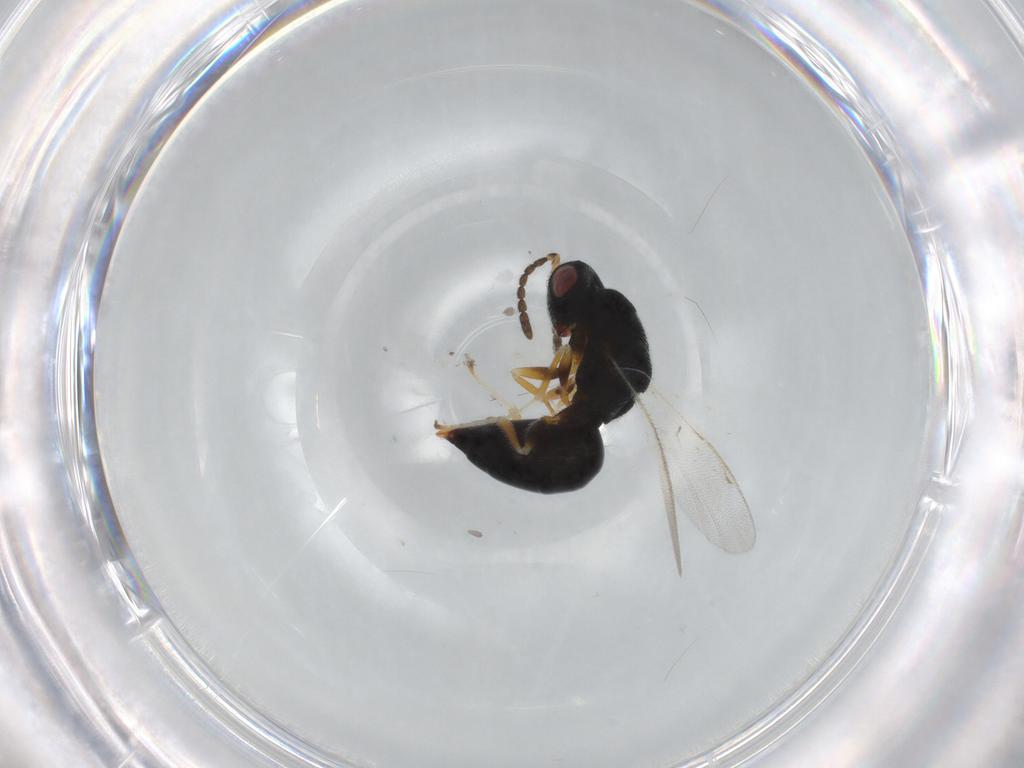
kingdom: Animalia
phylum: Arthropoda
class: Insecta
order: Hymenoptera
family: Eurytomidae
